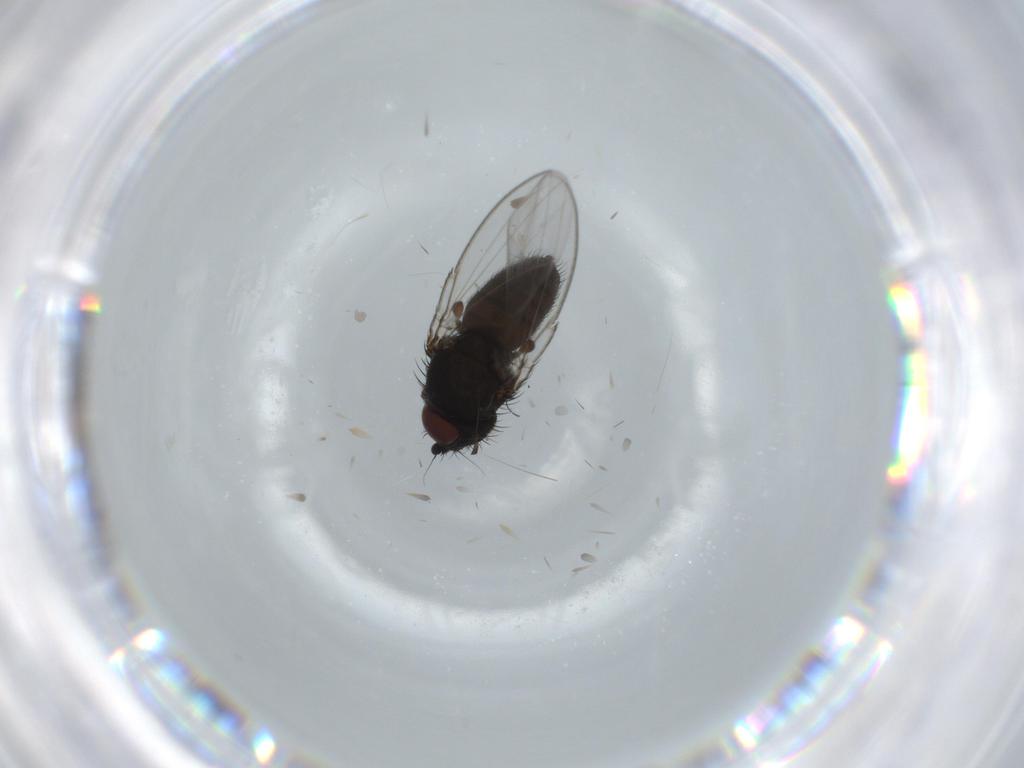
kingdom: Animalia
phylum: Arthropoda
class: Insecta
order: Diptera
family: Milichiidae
